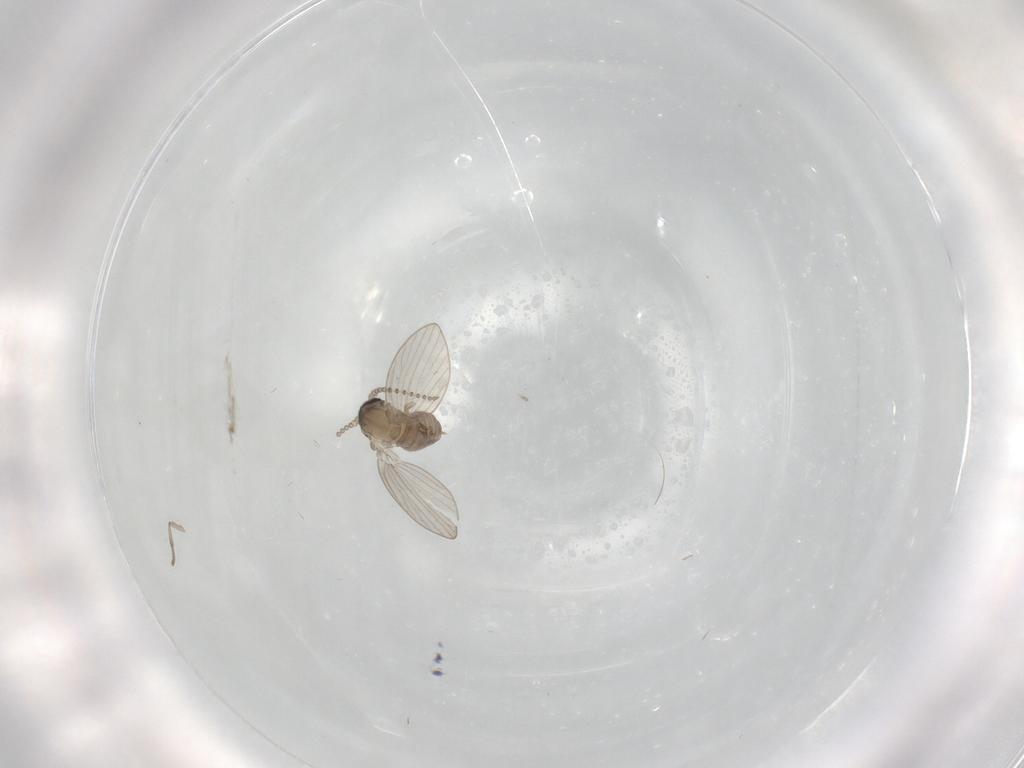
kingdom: Animalia
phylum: Arthropoda
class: Insecta
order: Diptera
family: Psychodidae
